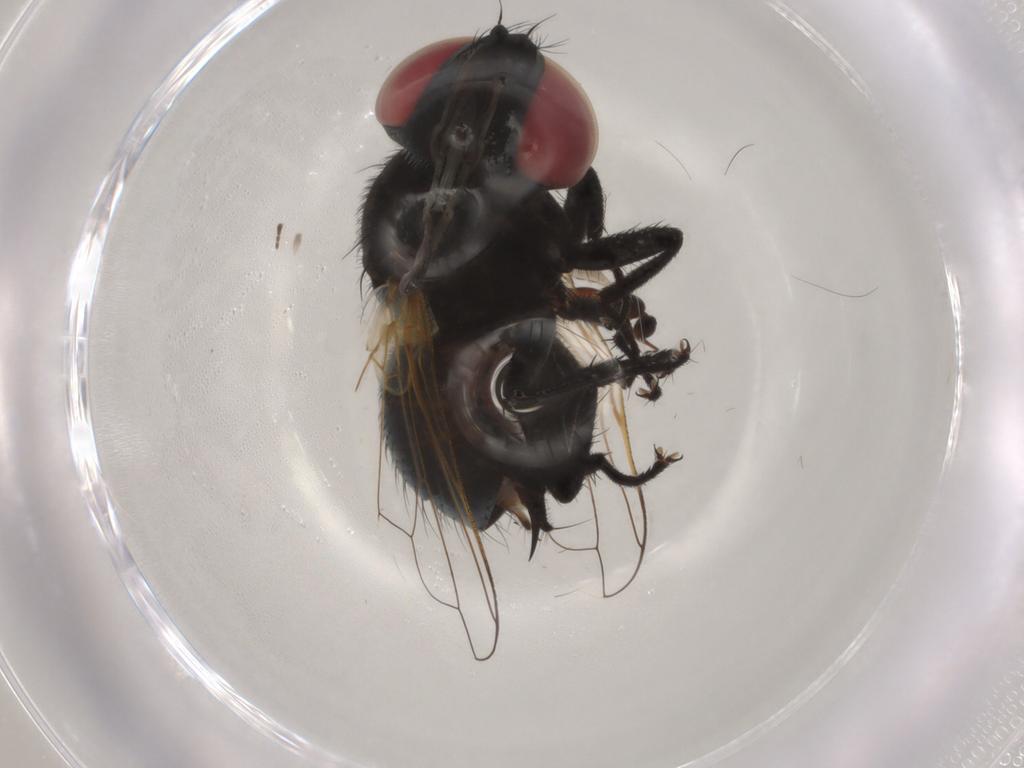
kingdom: Animalia
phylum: Arthropoda
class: Insecta
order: Diptera
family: Tachinidae
